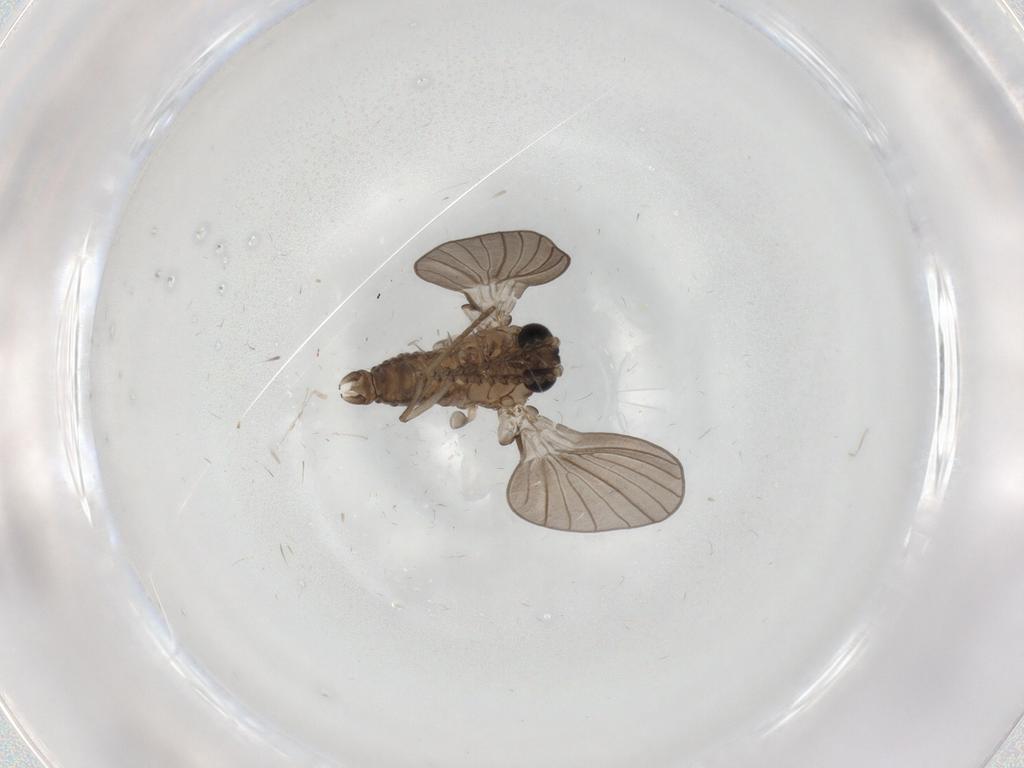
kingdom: Animalia
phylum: Arthropoda
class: Insecta
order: Diptera
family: Psychodidae
